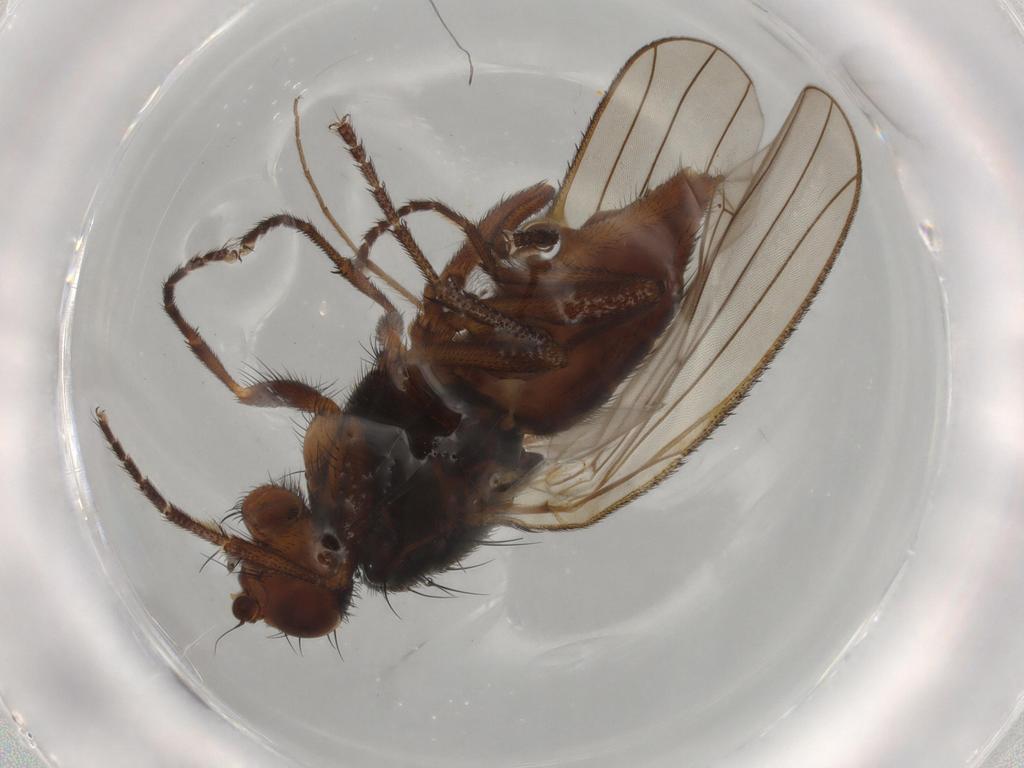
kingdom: Animalia
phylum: Arthropoda
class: Insecta
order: Diptera
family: Heleomyzidae
